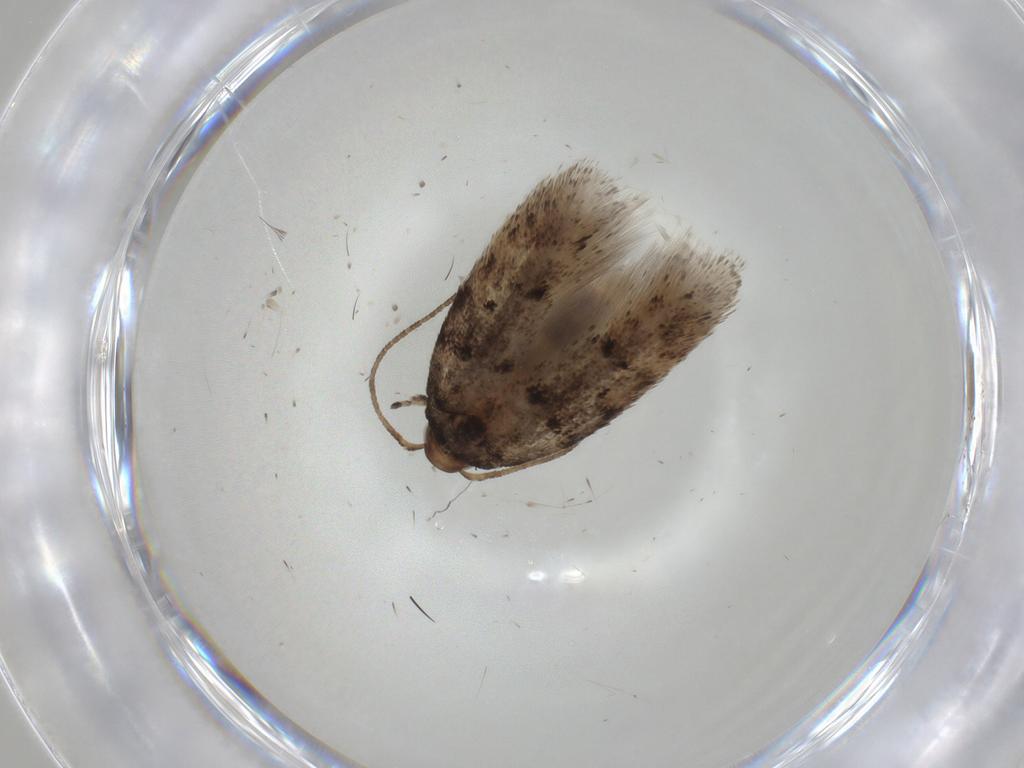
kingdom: Animalia
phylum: Arthropoda
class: Insecta
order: Lepidoptera
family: Gelechiidae
